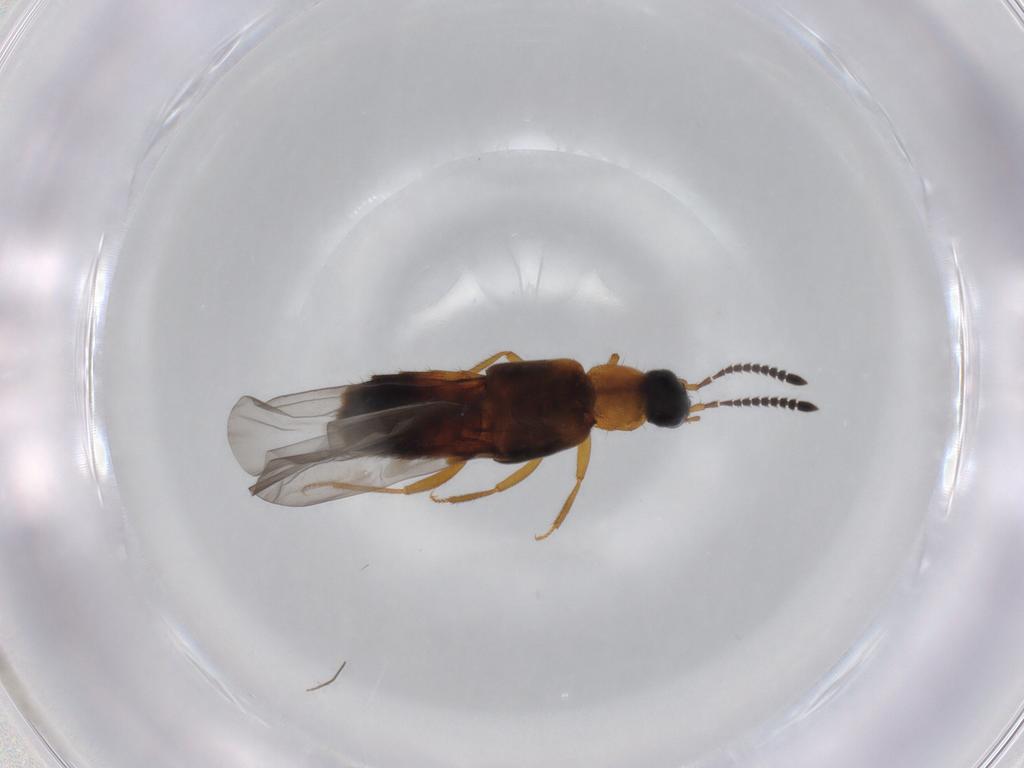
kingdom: Animalia
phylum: Arthropoda
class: Insecta
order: Coleoptera
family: Staphylinidae
